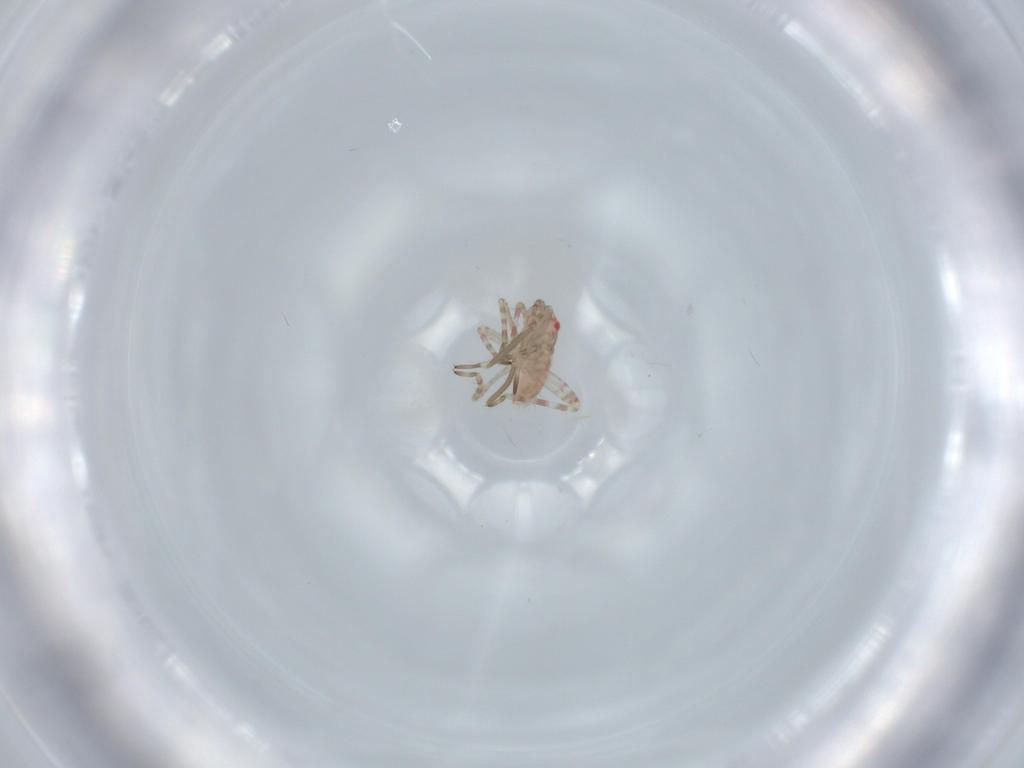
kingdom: Animalia
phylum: Arthropoda
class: Insecta
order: Hemiptera
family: Miridae
